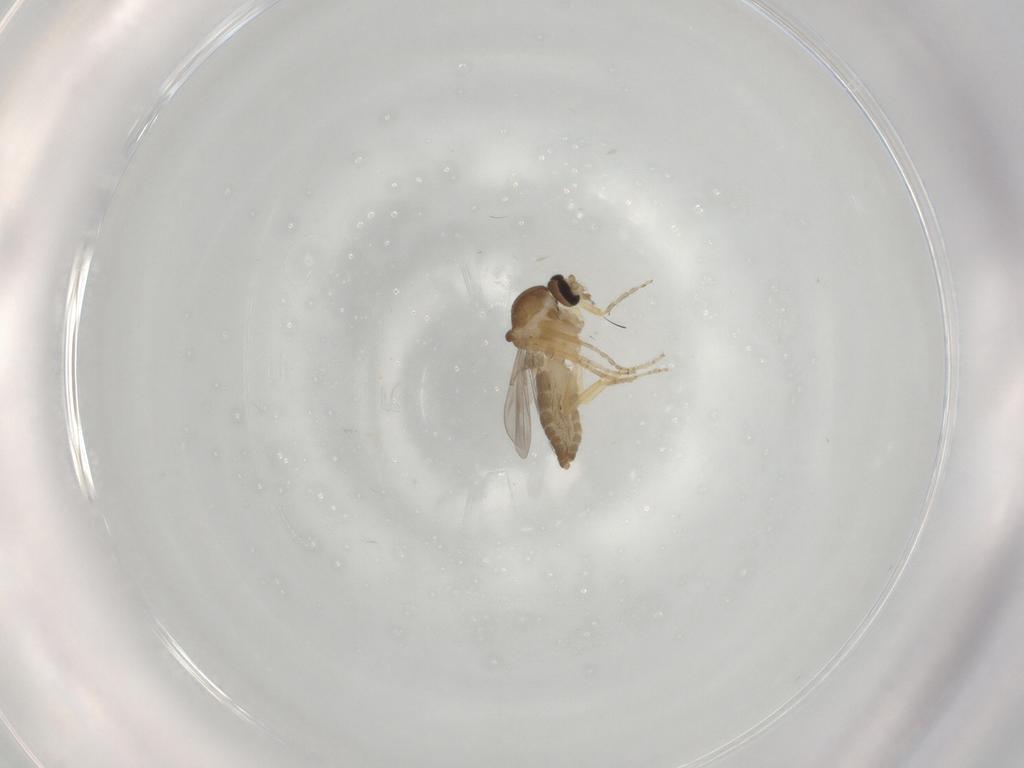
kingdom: Animalia
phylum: Arthropoda
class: Insecta
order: Diptera
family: Ceratopogonidae
